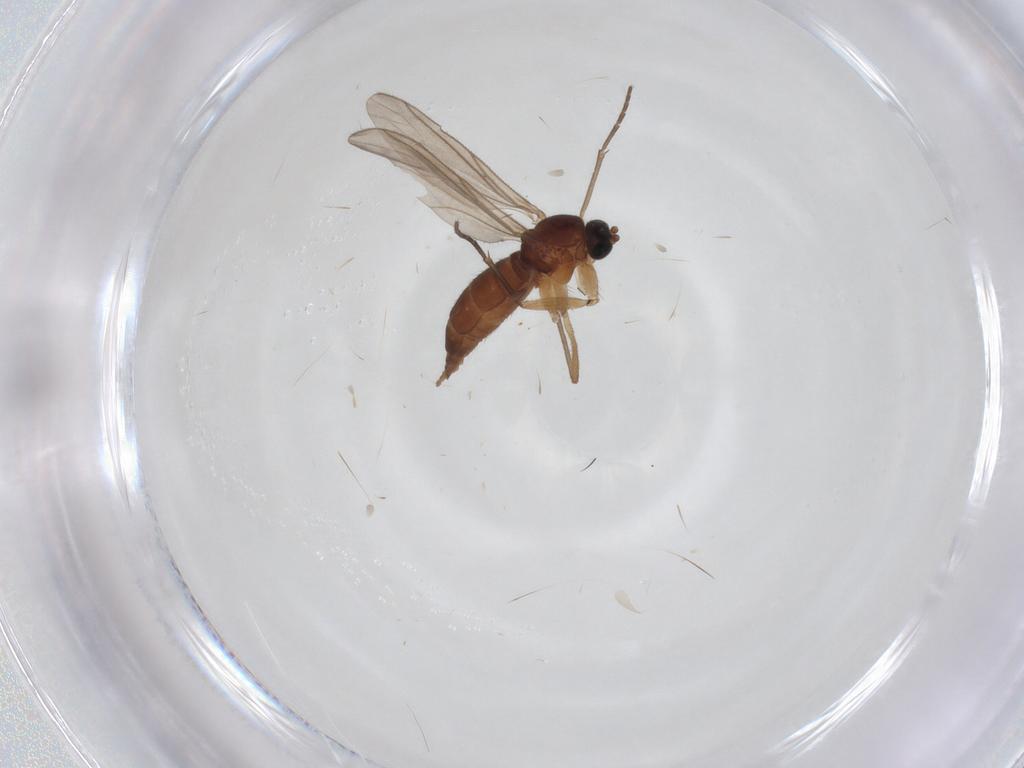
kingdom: Animalia
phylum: Arthropoda
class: Insecta
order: Diptera
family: Sciaridae
